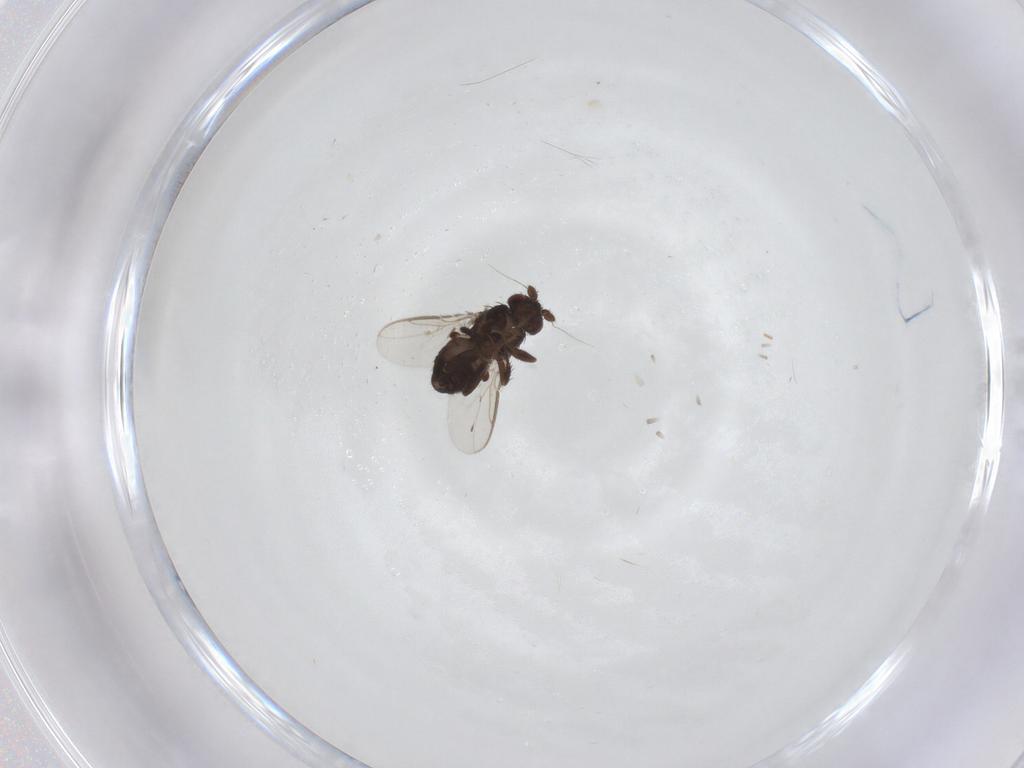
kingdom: Animalia
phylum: Arthropoda
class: Insecta
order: Diptera
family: Sphaeroceridae
